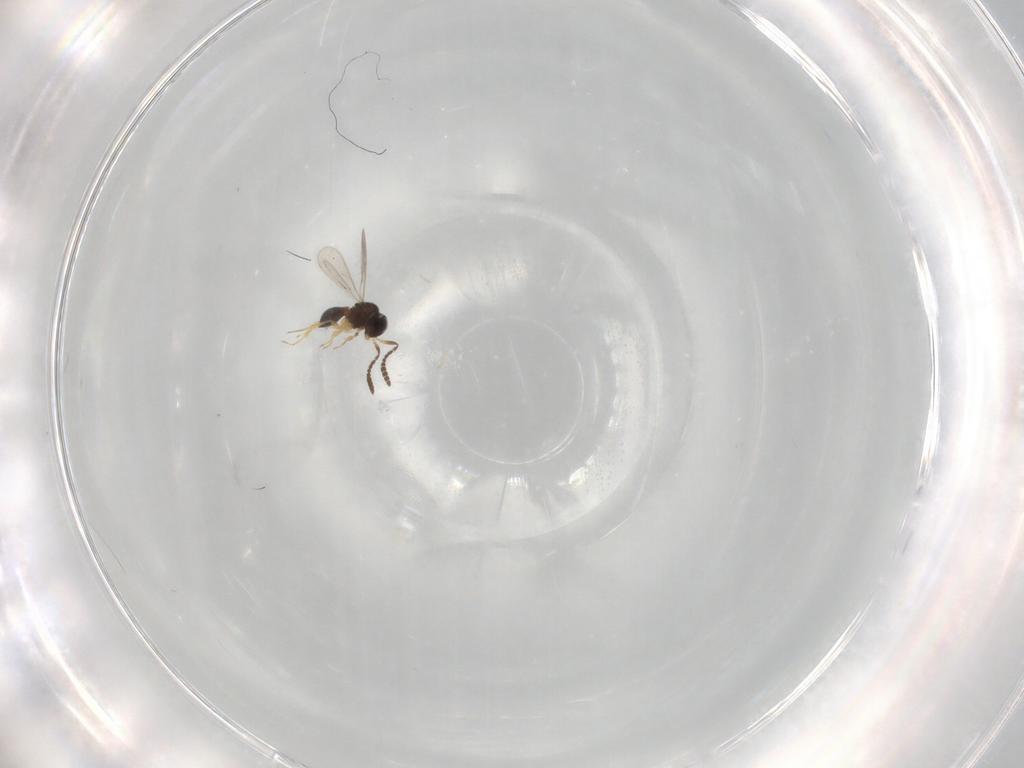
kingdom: Animalia
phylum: Arthropoda
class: Insecta
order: Hymenoptera
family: Scelionidae
